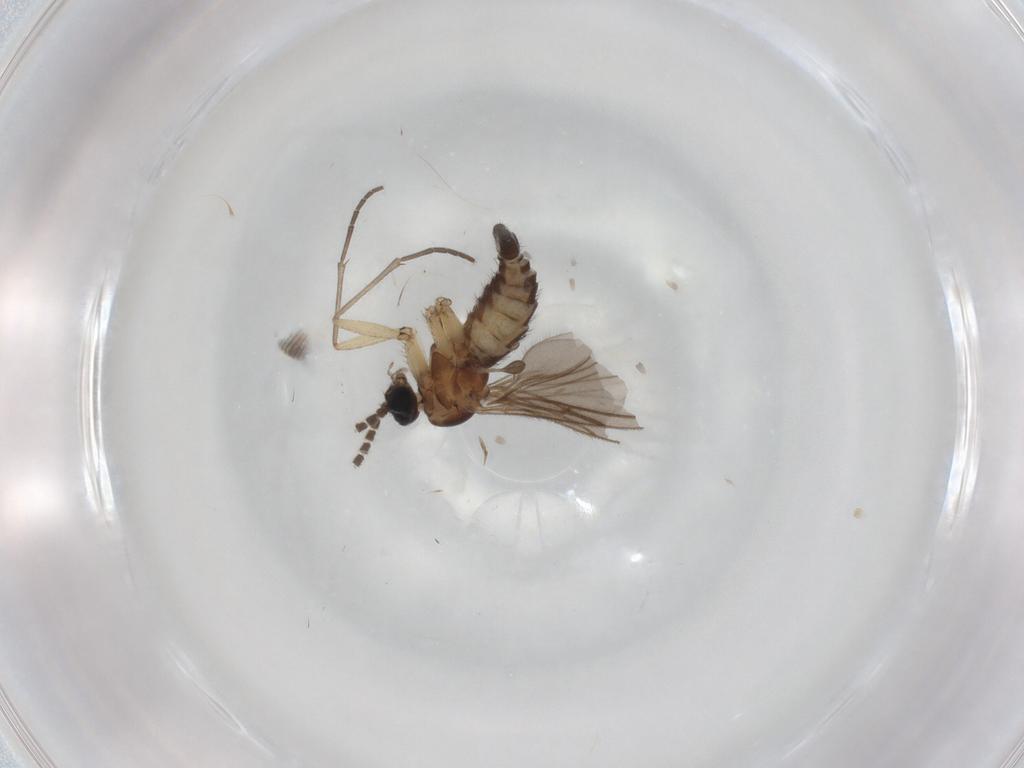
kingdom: Animalia
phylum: Arthropoda
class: Insecta
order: Diptera
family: Sciaridae
